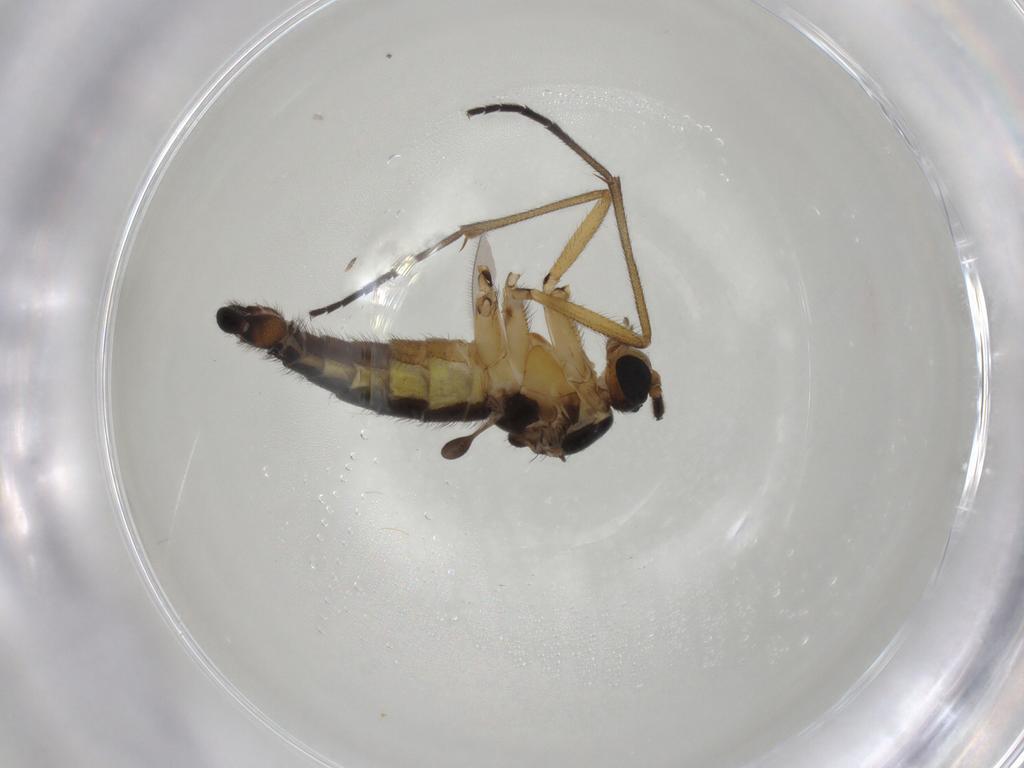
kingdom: Animalia
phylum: Arthropoda
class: Insecta
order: Diptera
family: Sciaridae
